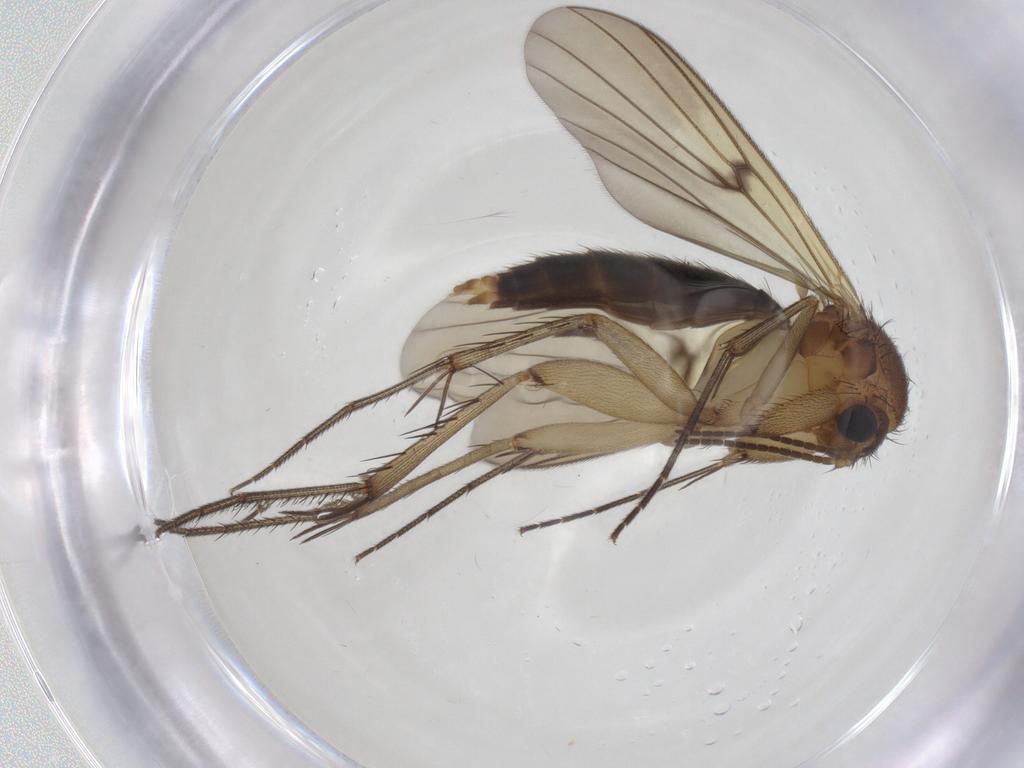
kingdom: Animalia
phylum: Arthropoda
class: Insecta
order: Diptera
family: Mycetophilidae
